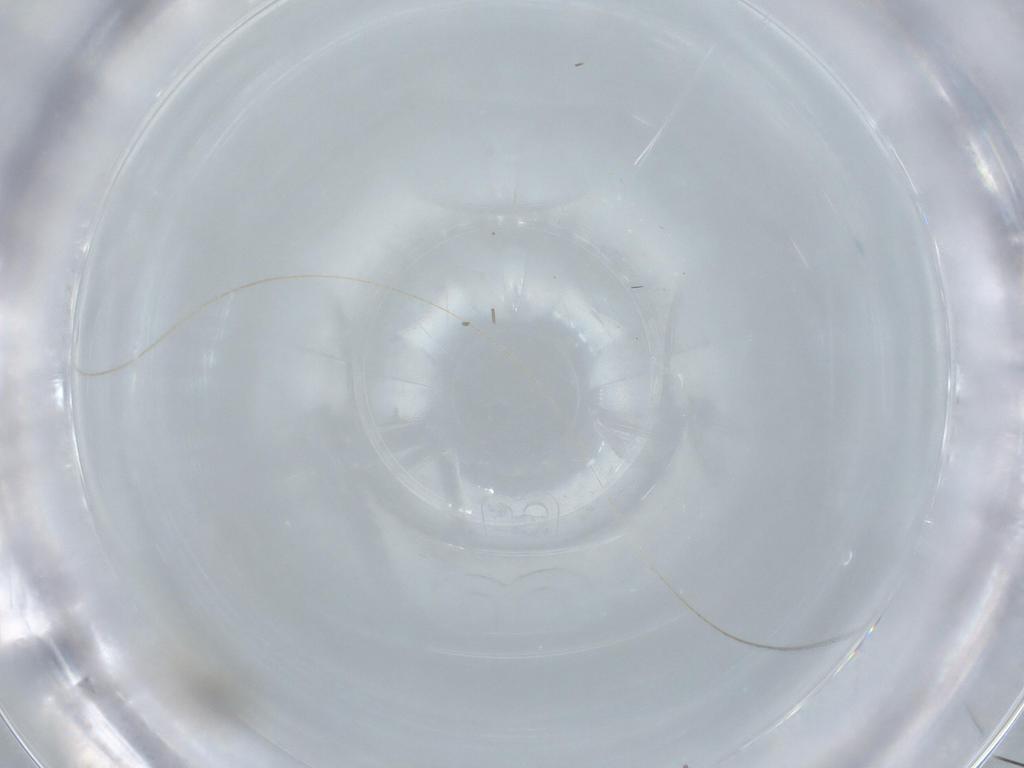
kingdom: Animalia
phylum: Arthropoda
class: Insecta
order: Diptera
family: Cecidomyiidae
